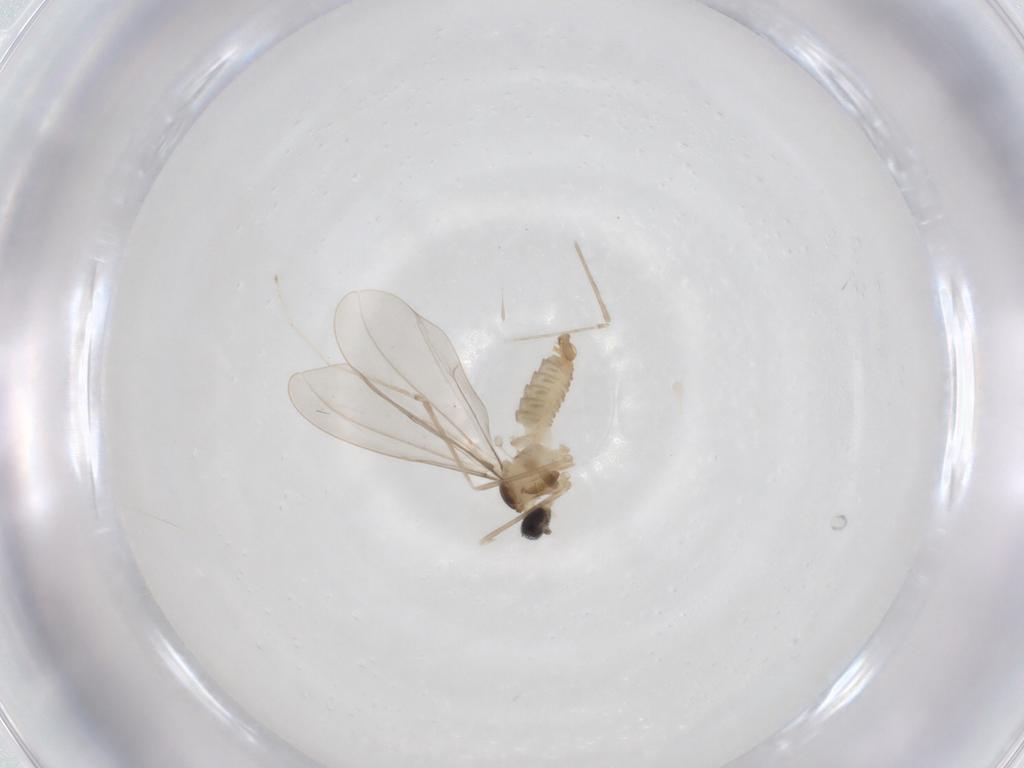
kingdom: Animalia
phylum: Arthropoda
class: Insecta
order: Diptera
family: Cecidomyiidae
